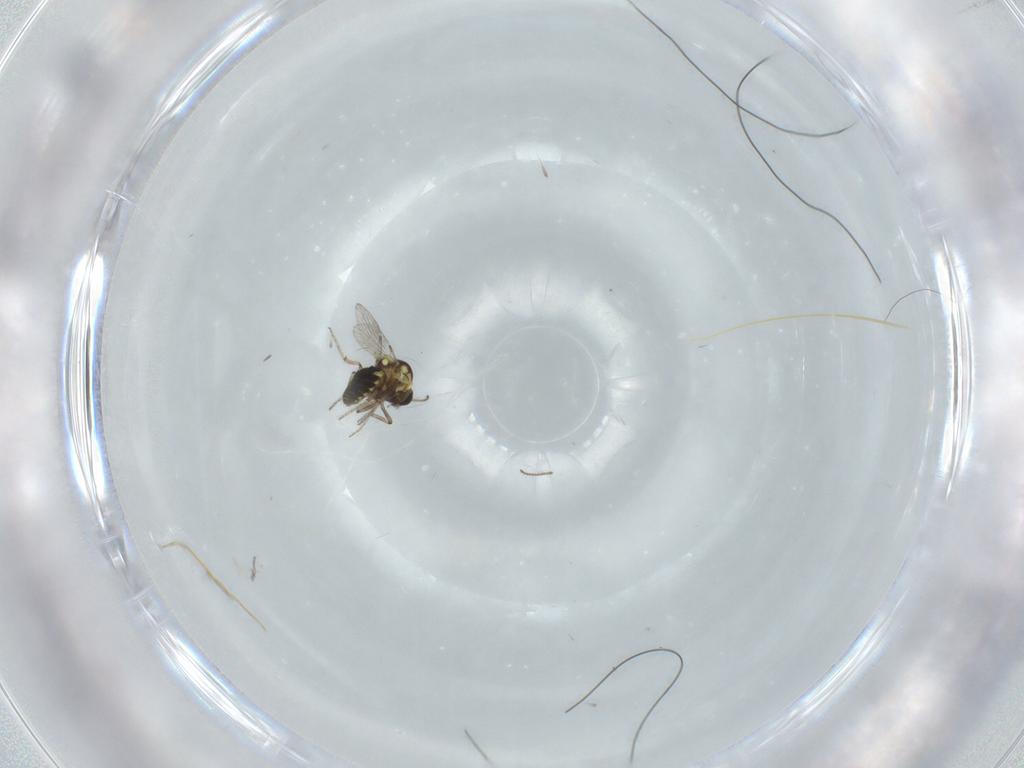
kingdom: Animalia
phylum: Arthropoda
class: Insecta
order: Diptera
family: Ceratopogonidae
